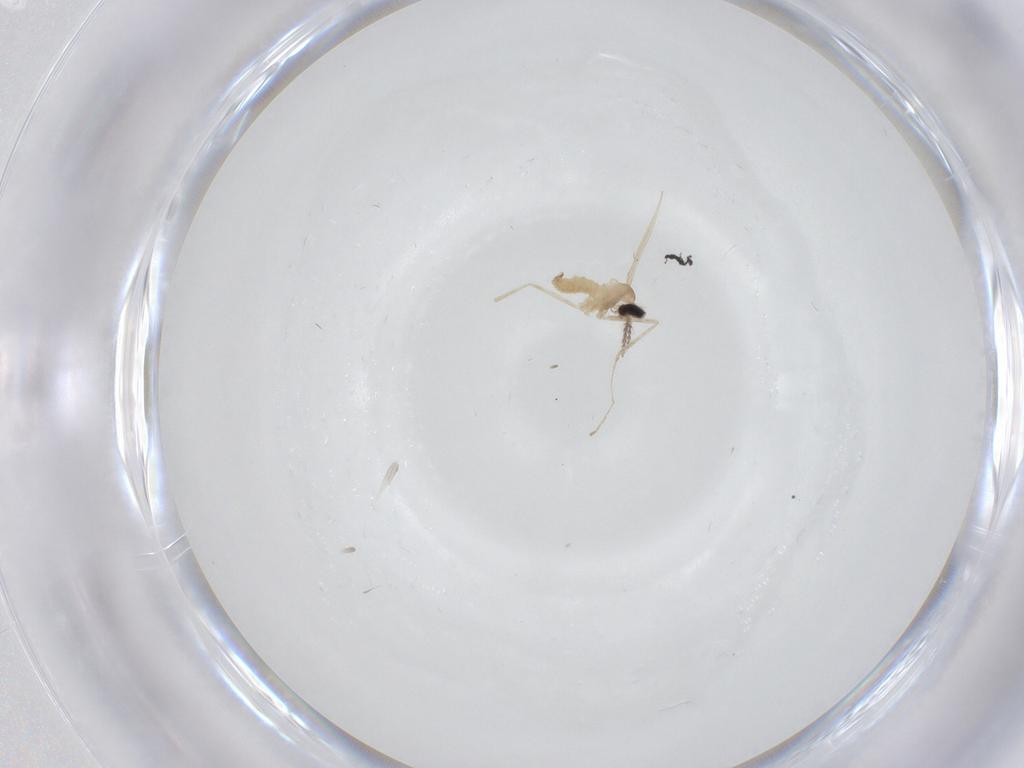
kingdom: Animalia
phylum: Arthropoda
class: Insecta
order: Diptera
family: Cecidomyiidae
